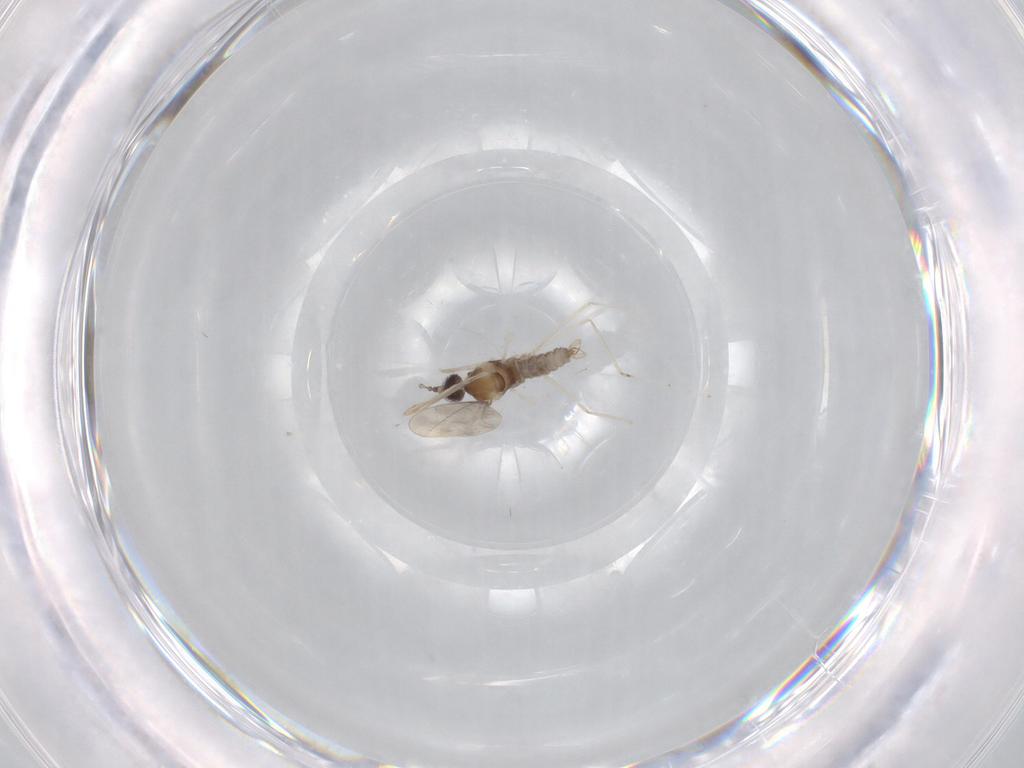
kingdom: Animalia
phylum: Arthropoda
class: Insecta
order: Diptera
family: Cecidomyiidae
